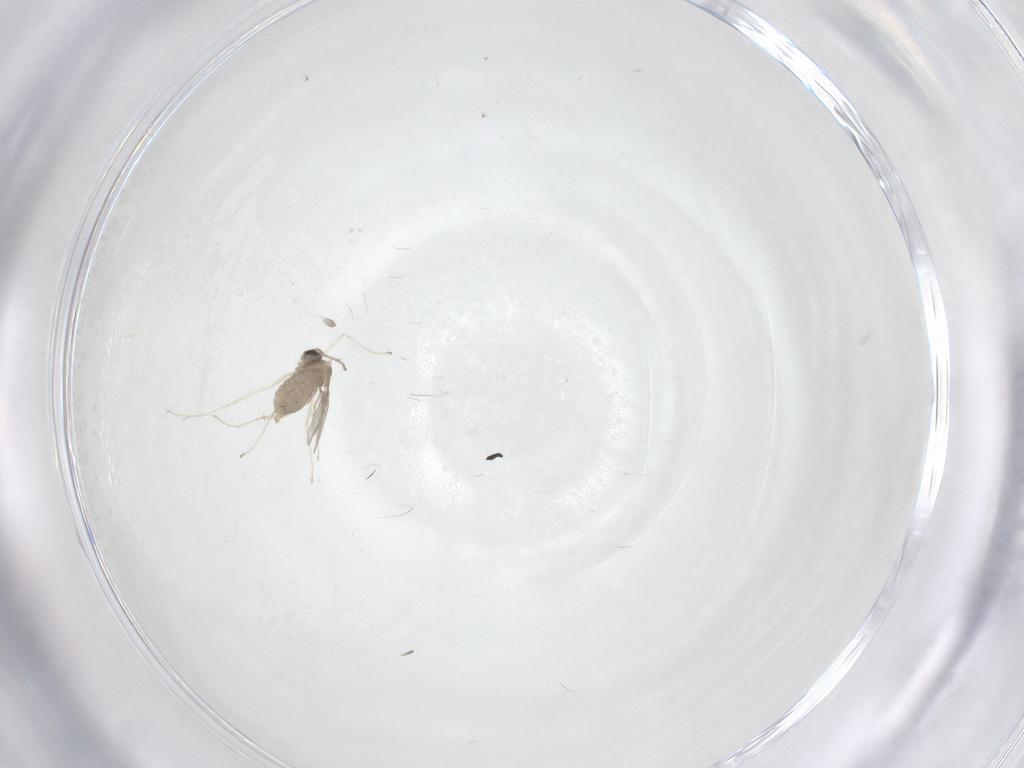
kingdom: Animalia
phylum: Arthropoda
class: Insecta
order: Diptera
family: Cecidomyiidae
